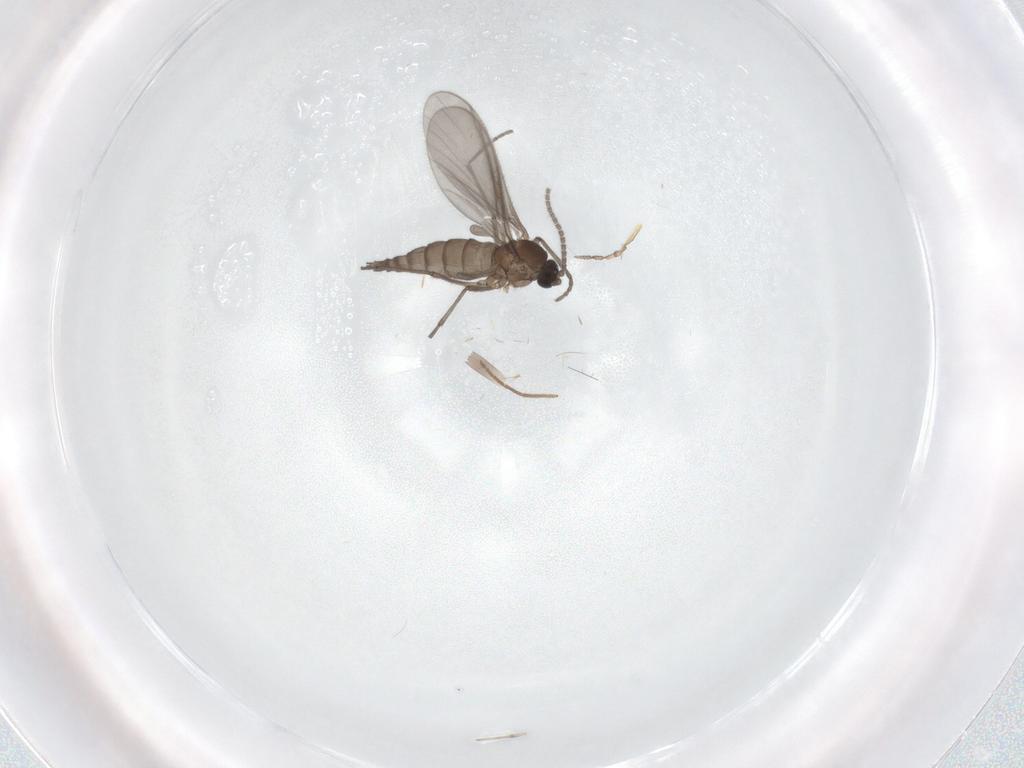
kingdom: Animalia
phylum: Arthropoda
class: Insecta
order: Diptera
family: Sciaridae
